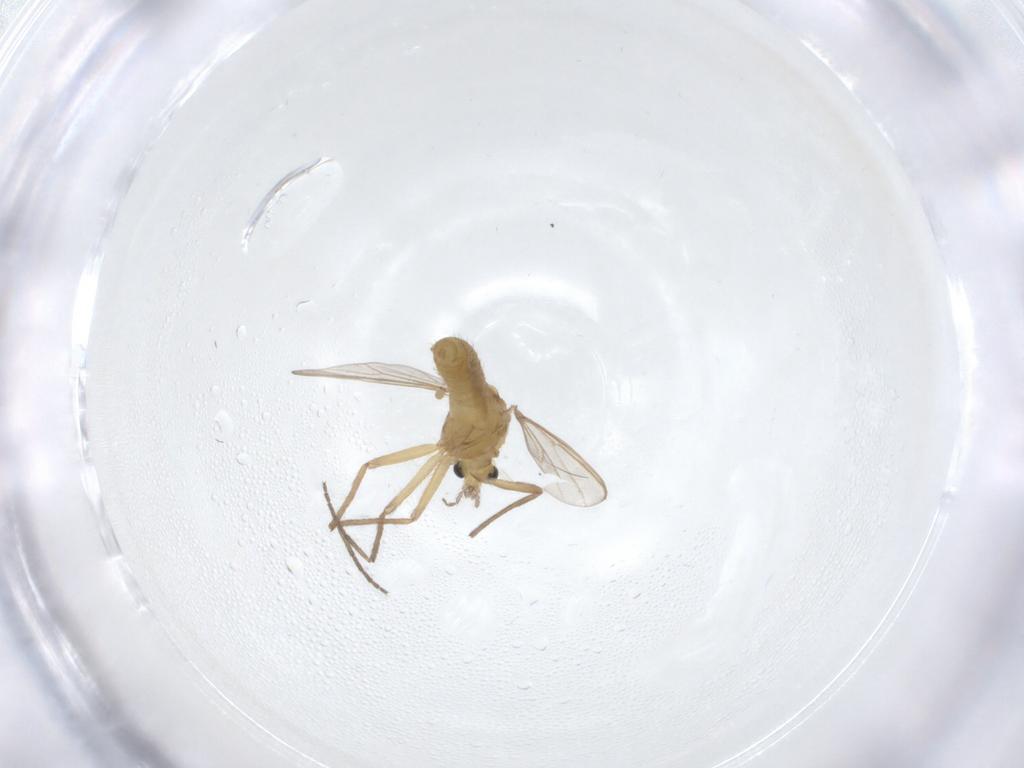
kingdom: Animalia
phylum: Arthropoda
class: Insecta
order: Diptera
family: Chironomidae
